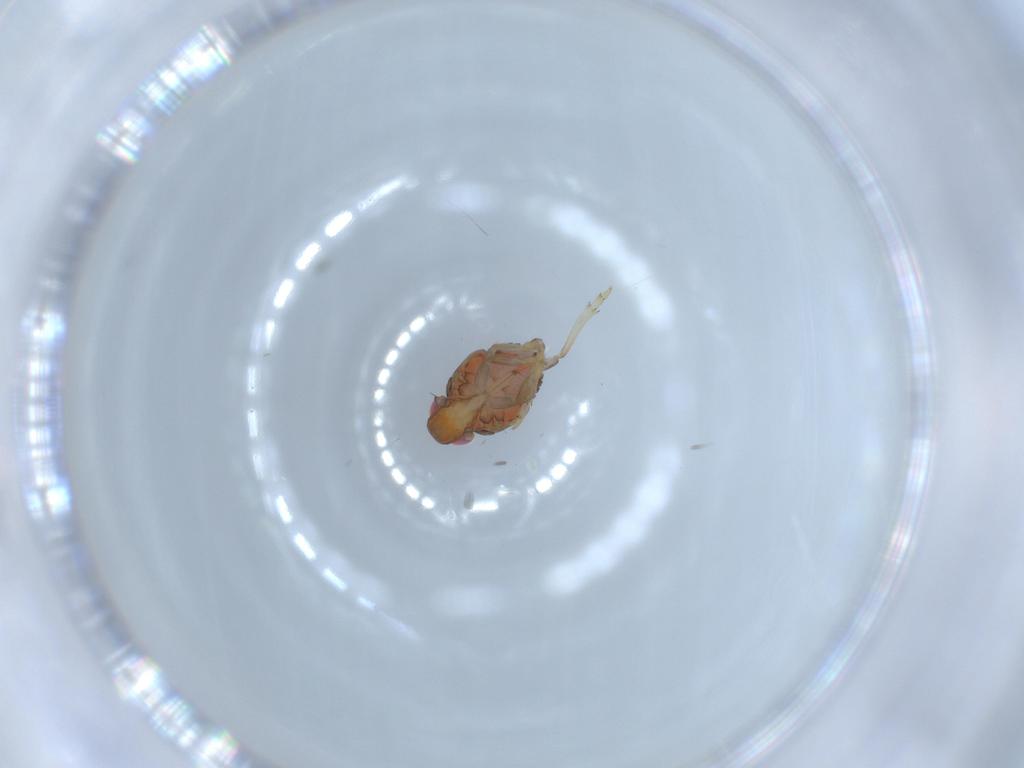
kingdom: Animalia
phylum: Arthropoda
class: Insecta
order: Hemiptera
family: Issidae
